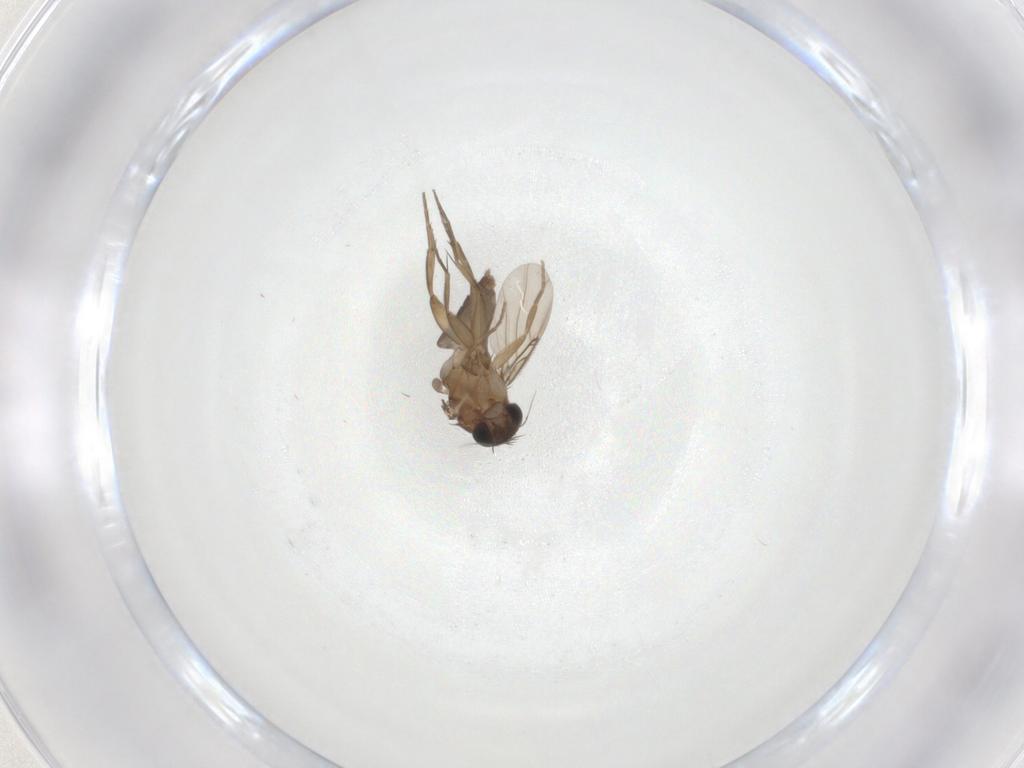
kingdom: Animalia
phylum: Arthropoda
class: Insecta
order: Diptera
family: Phoridae
